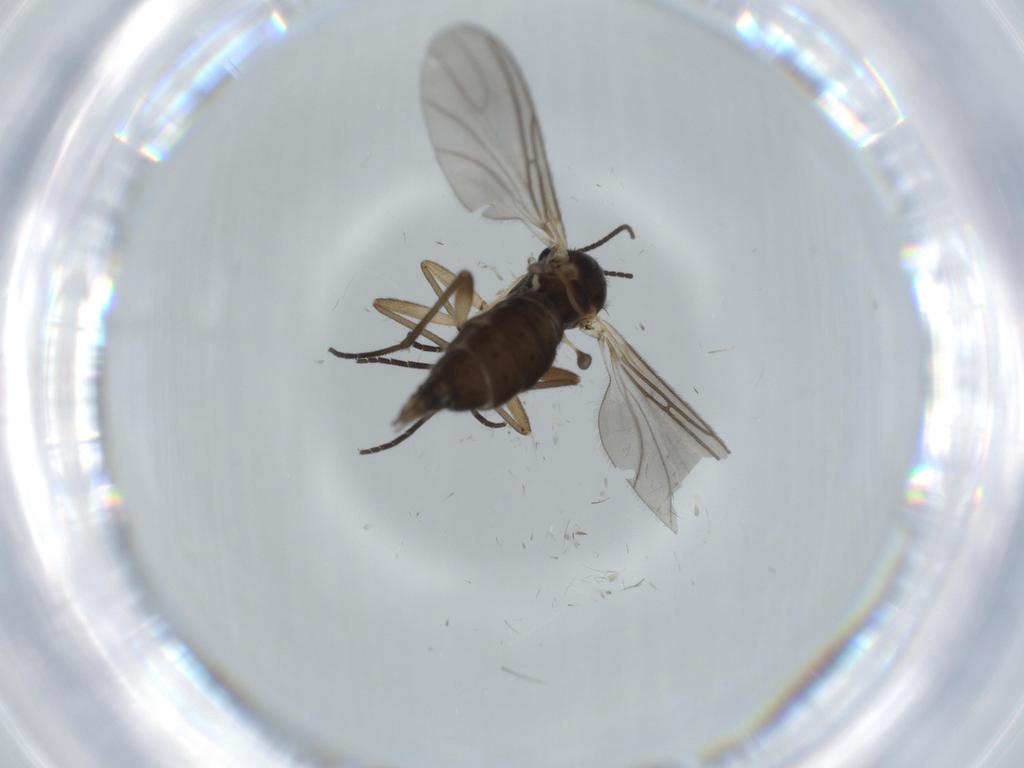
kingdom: Animalia
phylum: Arthropoda
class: Insecta
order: Diptera
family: Sciaridae
